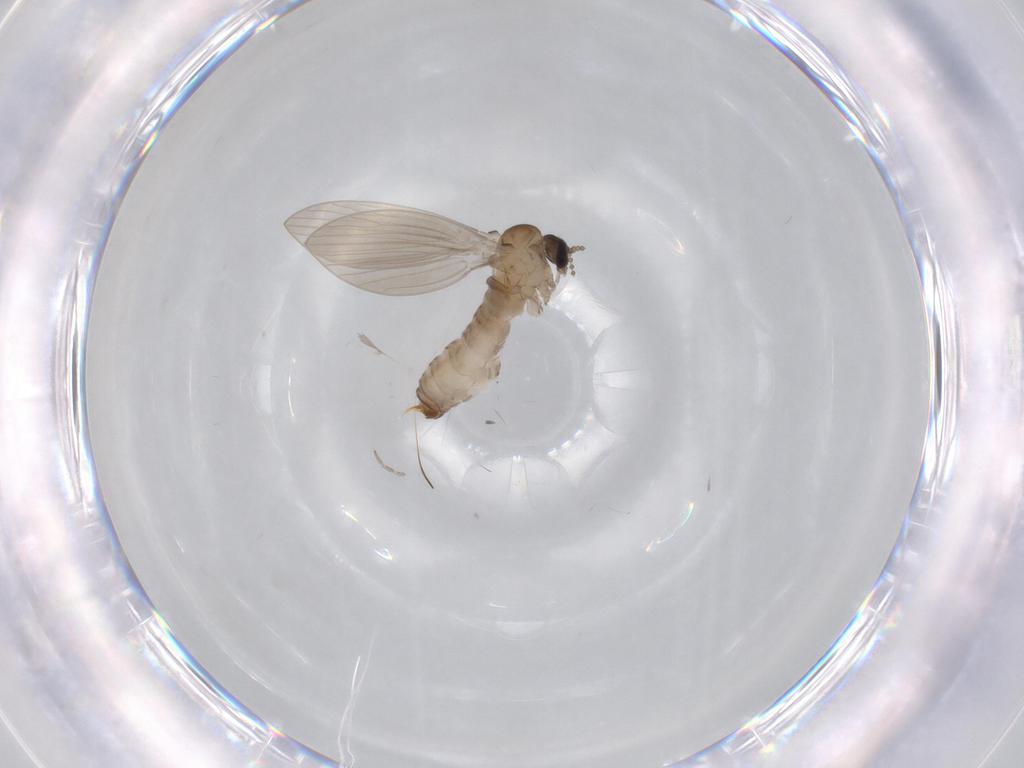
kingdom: Animalia
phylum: Arthropoda
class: Insecta
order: Diptera
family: Psychodidae
